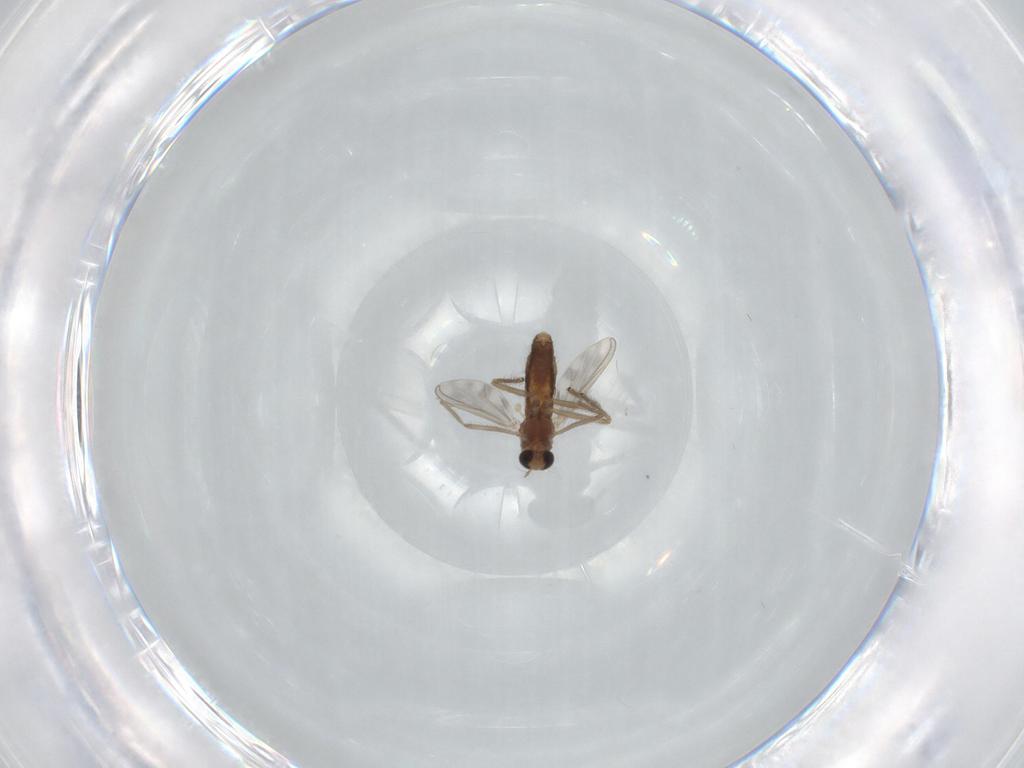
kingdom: Animalia
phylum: Arthropoda
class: Insecta
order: Diptera
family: Chironomidae
